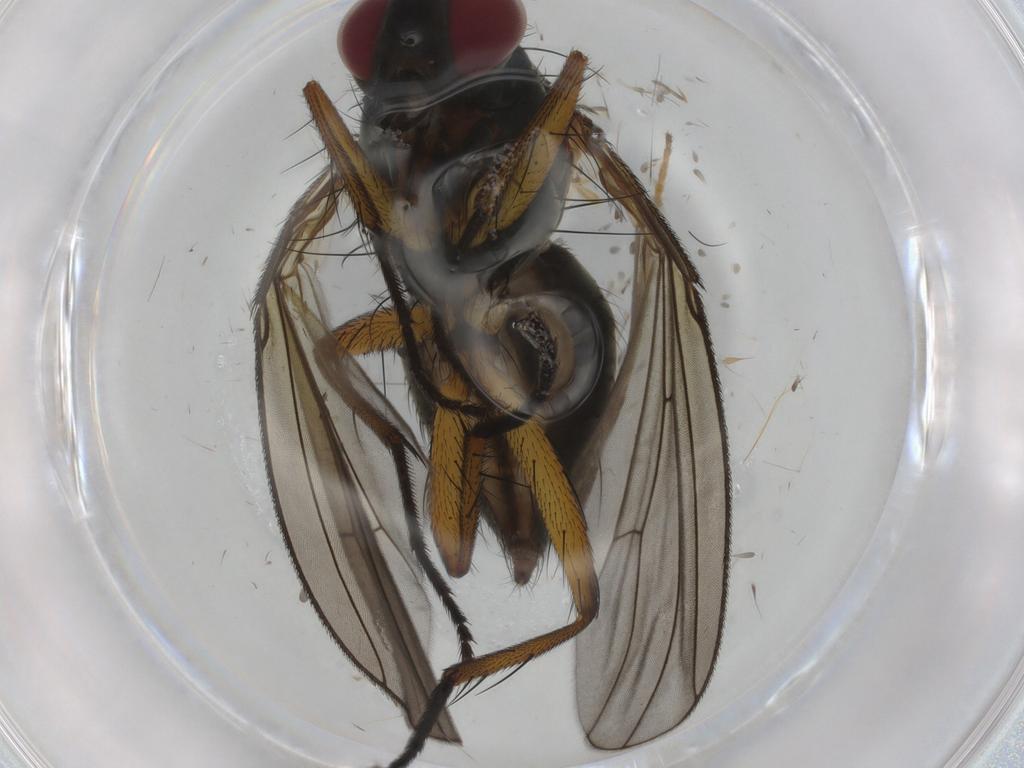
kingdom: Animalia
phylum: Arthropoda
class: Insecta
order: Diptera
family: Muscidae
